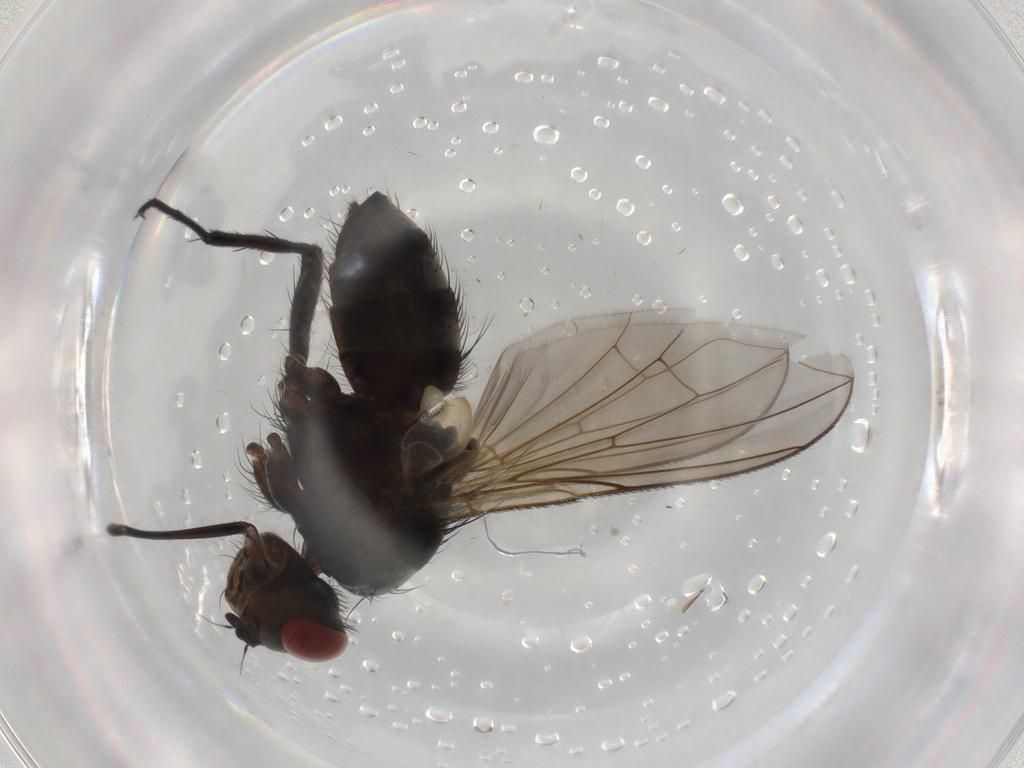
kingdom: Animalia
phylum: Arthropoda
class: Insecta
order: Diptera
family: Tachinidae
